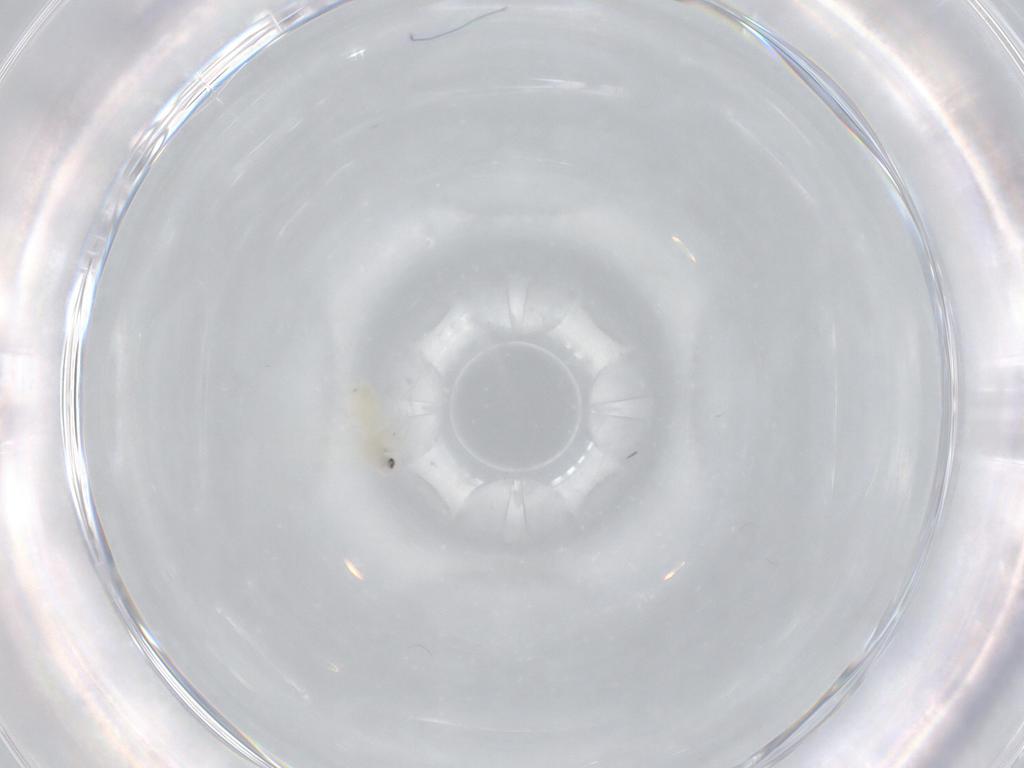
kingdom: Animalia
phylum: Arthropoda
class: Insecta
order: Hemiptera
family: Aleyrodidae
